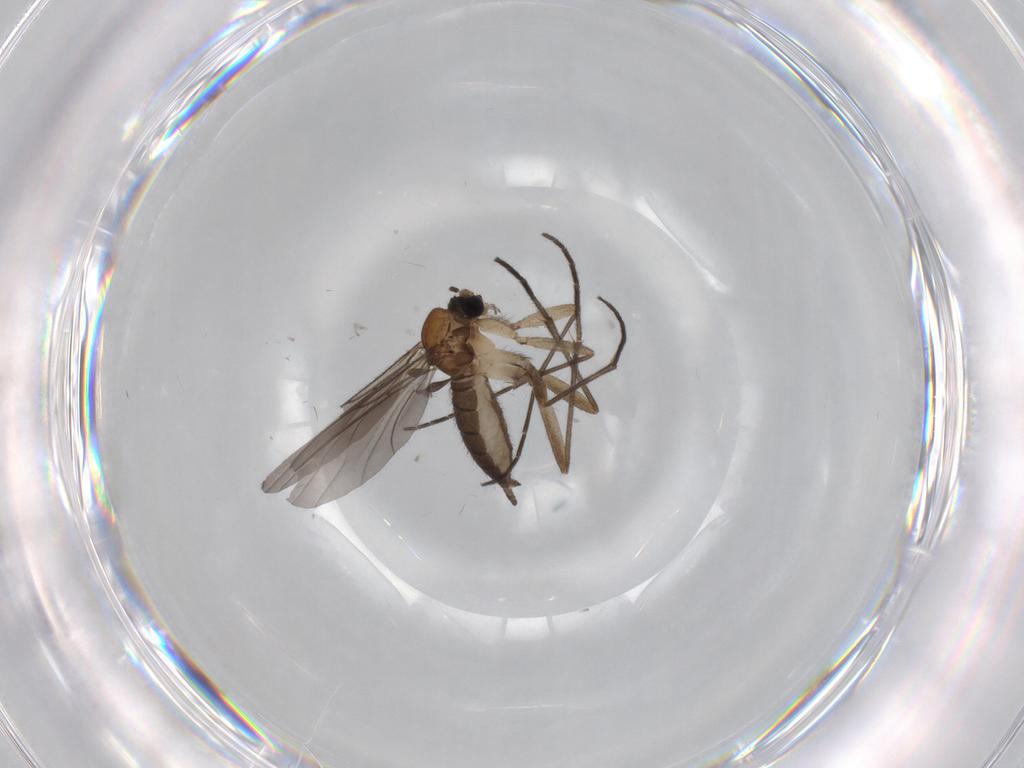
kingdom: Animalia
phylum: Arthropoda
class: Insecta
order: Diptera
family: Sciaridae
